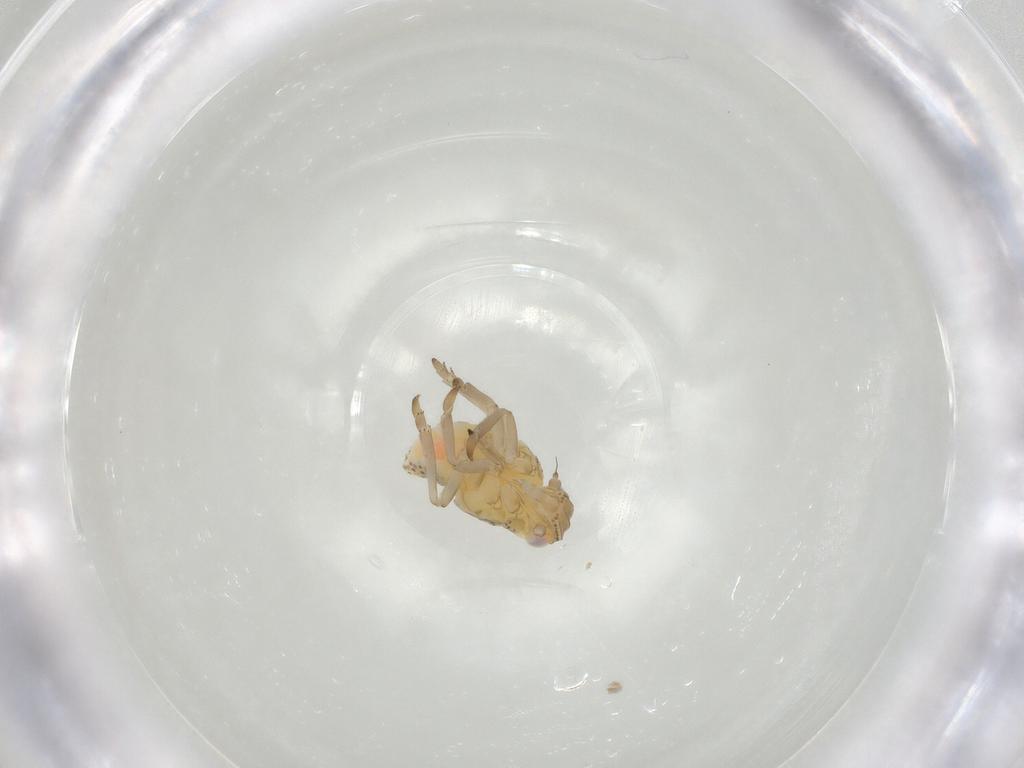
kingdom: Animalia
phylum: Arthropoda
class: Insecta
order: Hemiptera
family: Tropiduchidae
